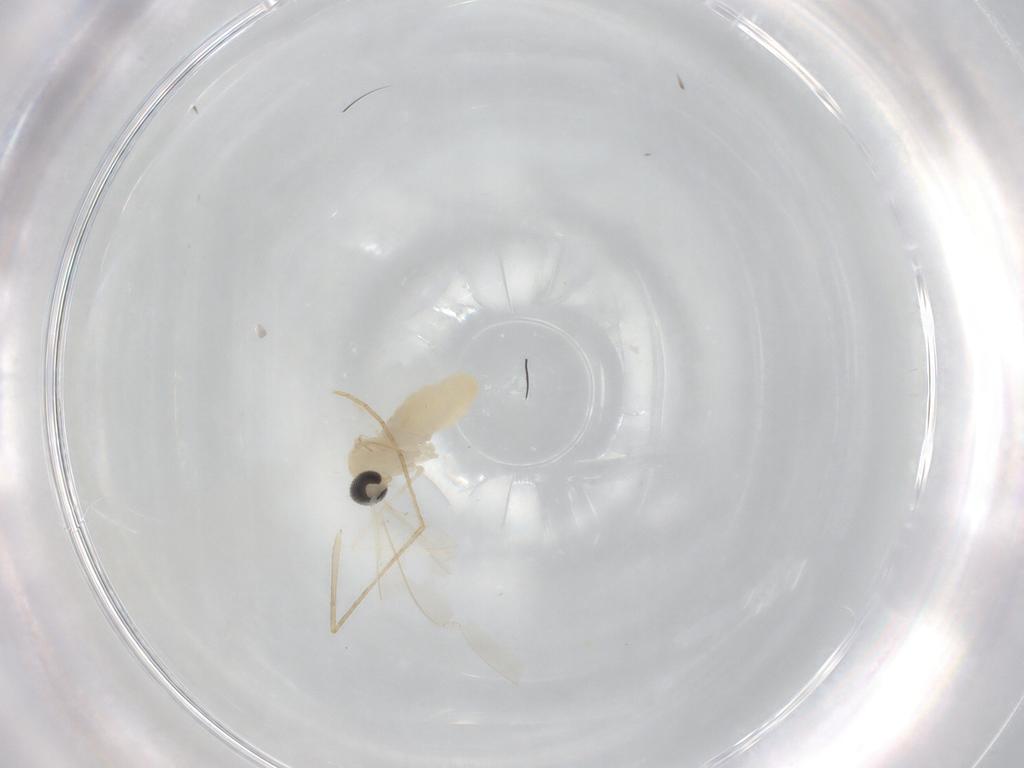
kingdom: Animalia
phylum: Arthropoda
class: Insecta
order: Diptera
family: Cecidomyiidae
